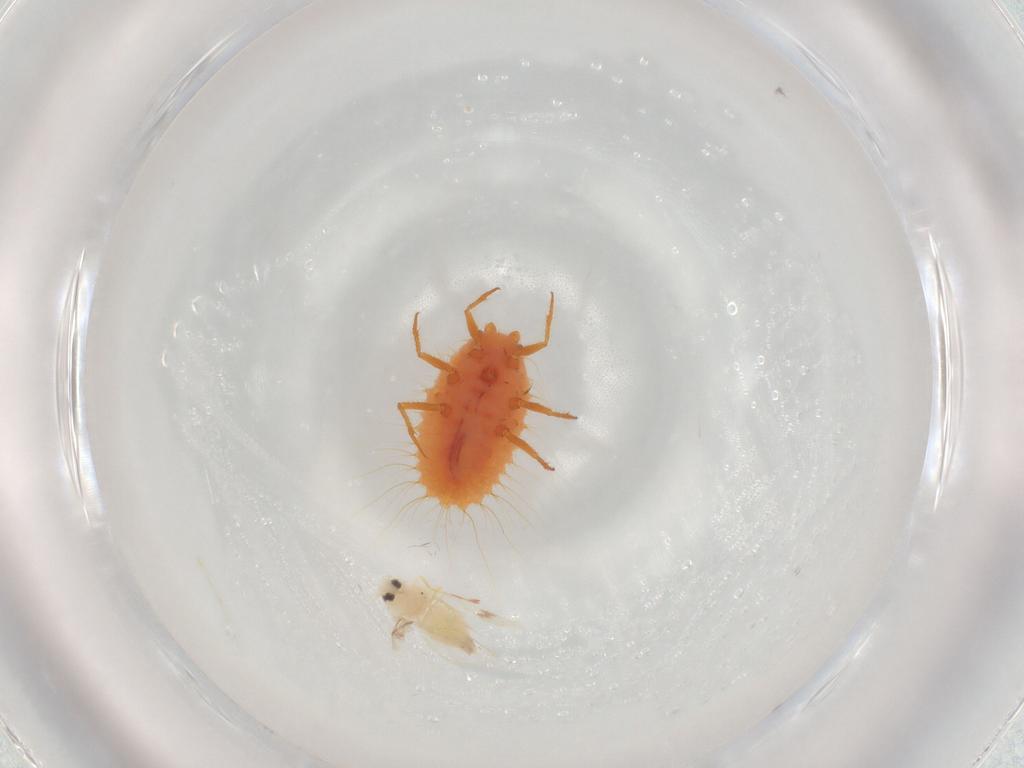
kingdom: Animalia
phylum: Arthropoda
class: Insecta
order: Hemiptera
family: Aleyrodidae
